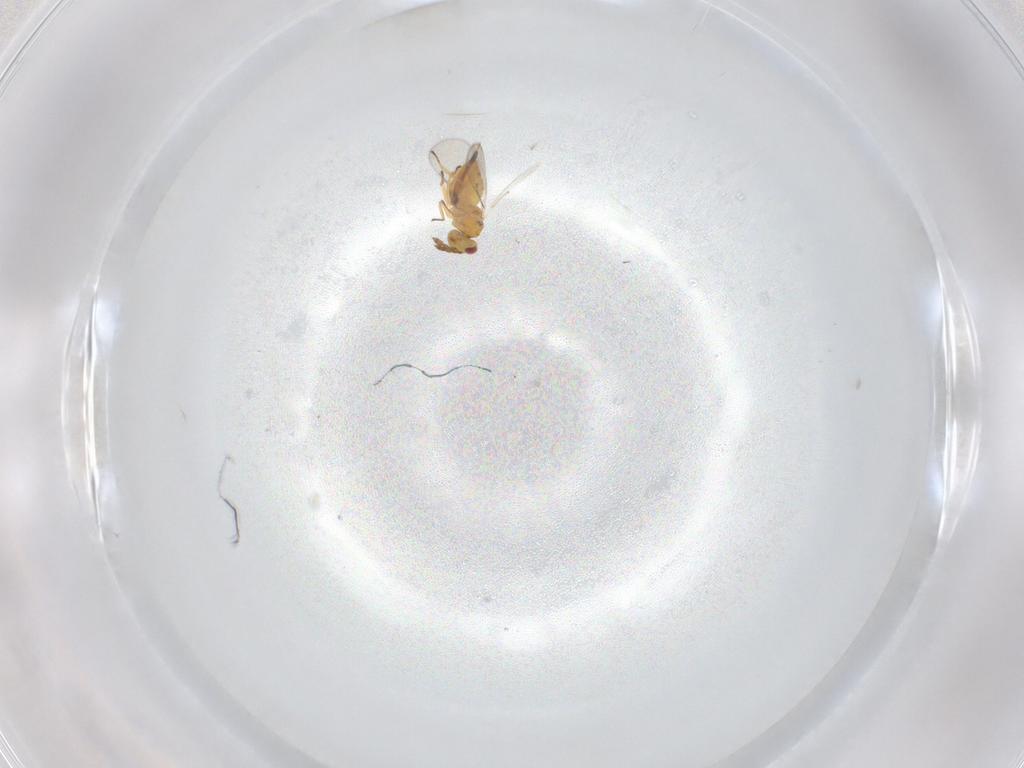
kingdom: Animalia
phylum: Arthropoda
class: Insecta
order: Hymenoptera
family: Eulophidae
